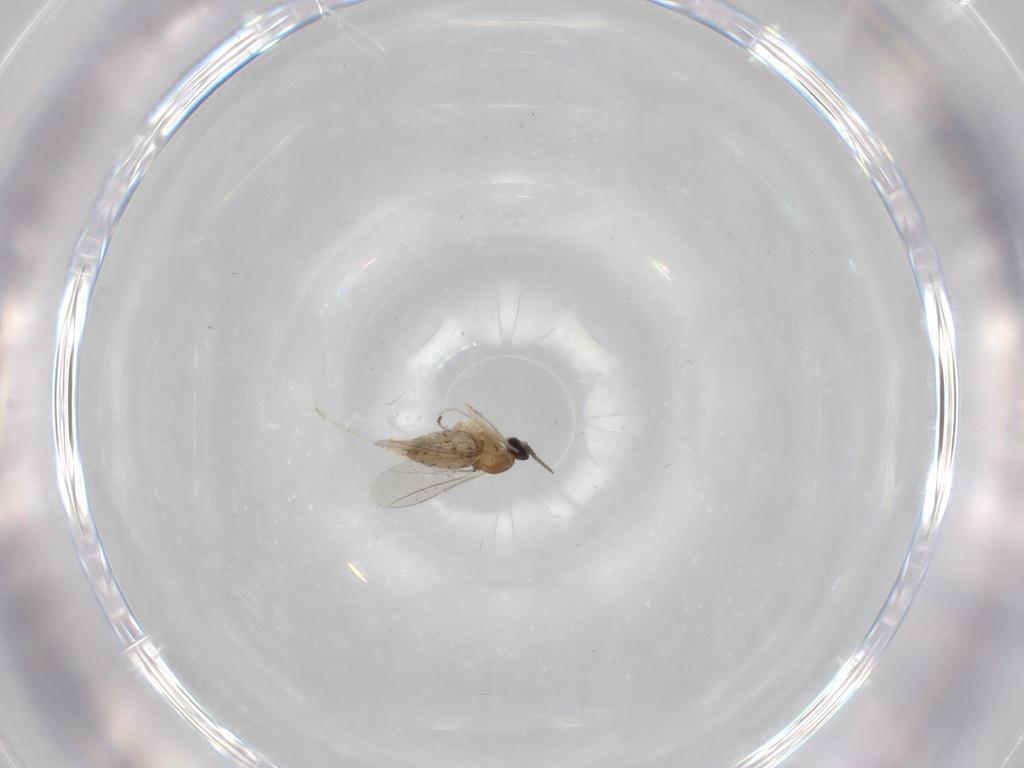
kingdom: Animalia
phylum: Arthropoda
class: Insecta
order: Diptera
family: Cecidomyiidae
